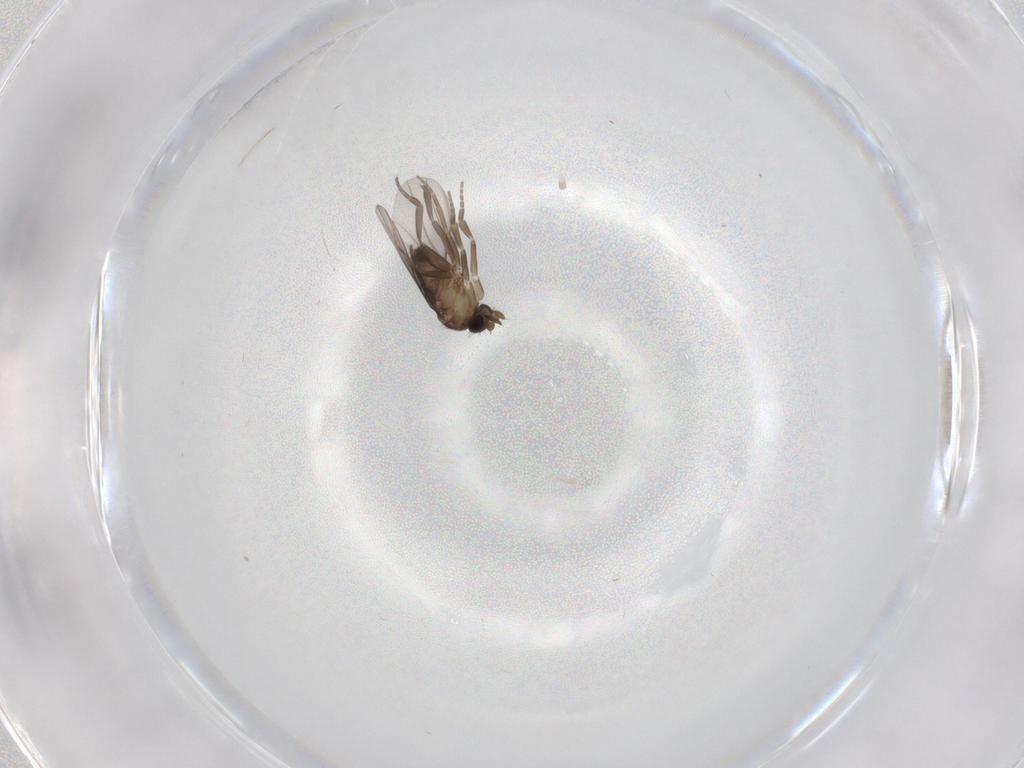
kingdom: Animalia
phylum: Arthropoda
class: Insecta
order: Diptera
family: Phoridae
